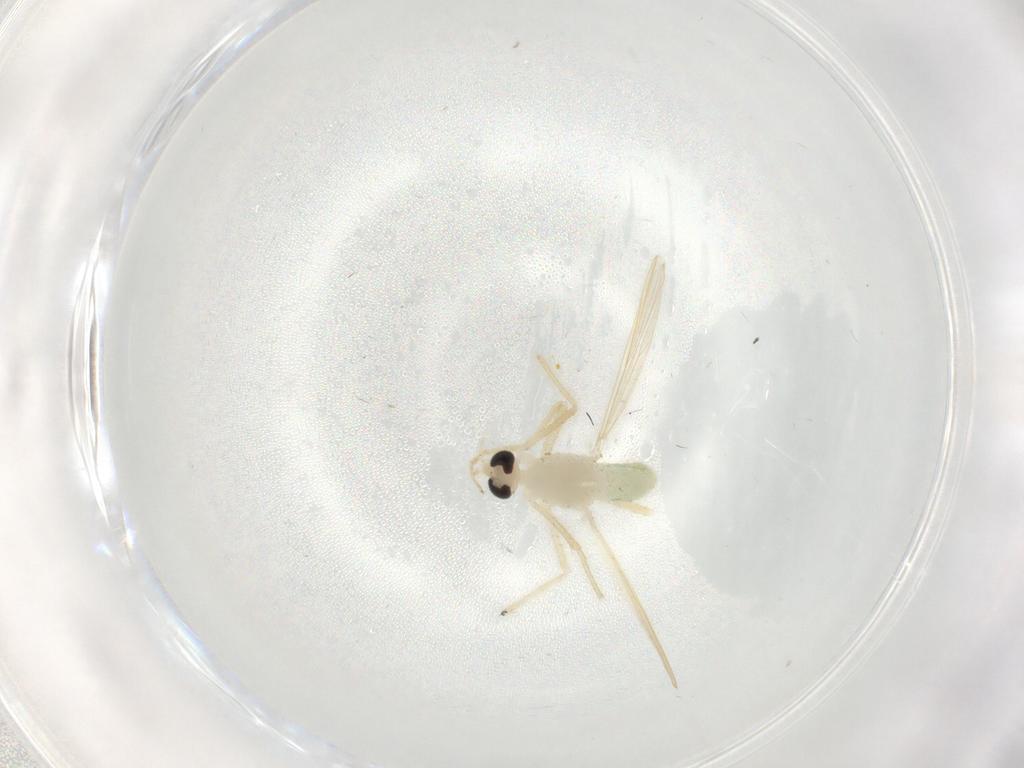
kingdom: Animalia
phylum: Arthropoda
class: Insecta
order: Diptera
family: Chironomidae
